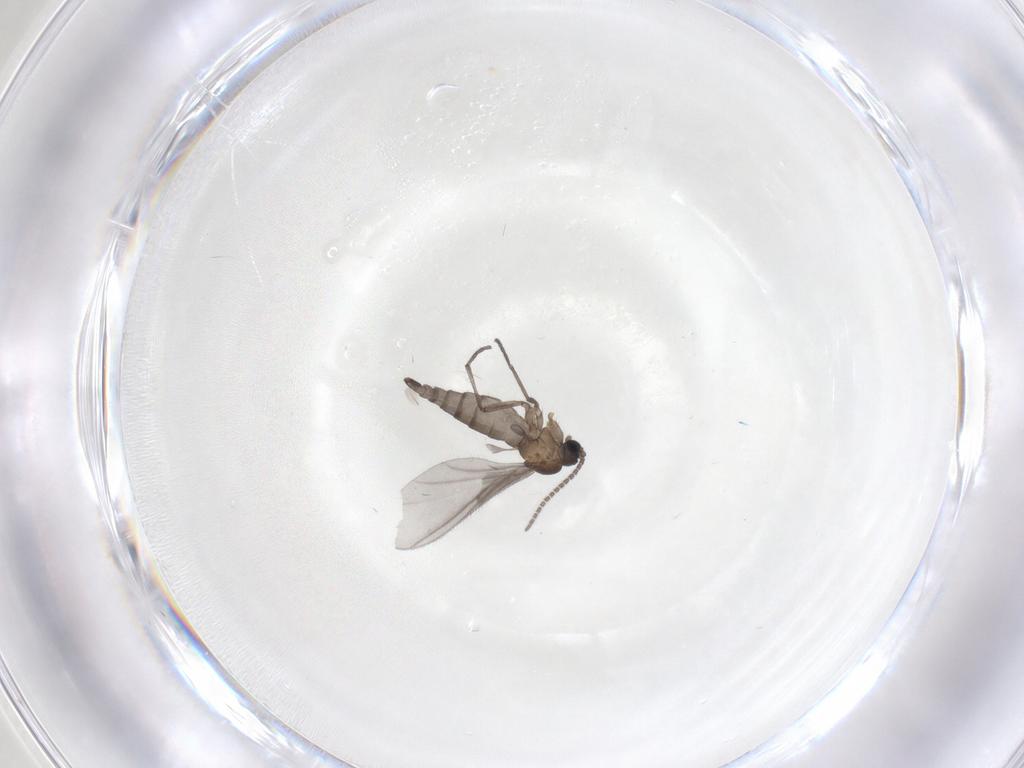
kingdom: Animalia
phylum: Arthropoda
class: Insecta
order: Diptera
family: Sciaridae
